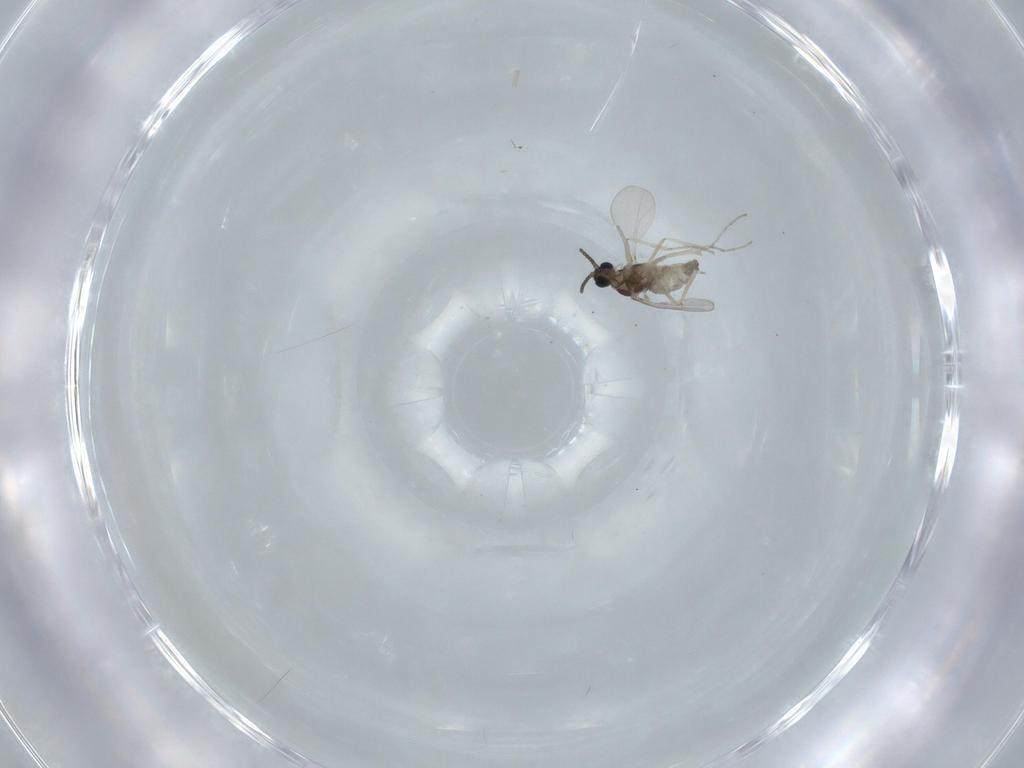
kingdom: Animalia
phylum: Arthropoda
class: Insecta
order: Diptera
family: Cecidomyiidae
